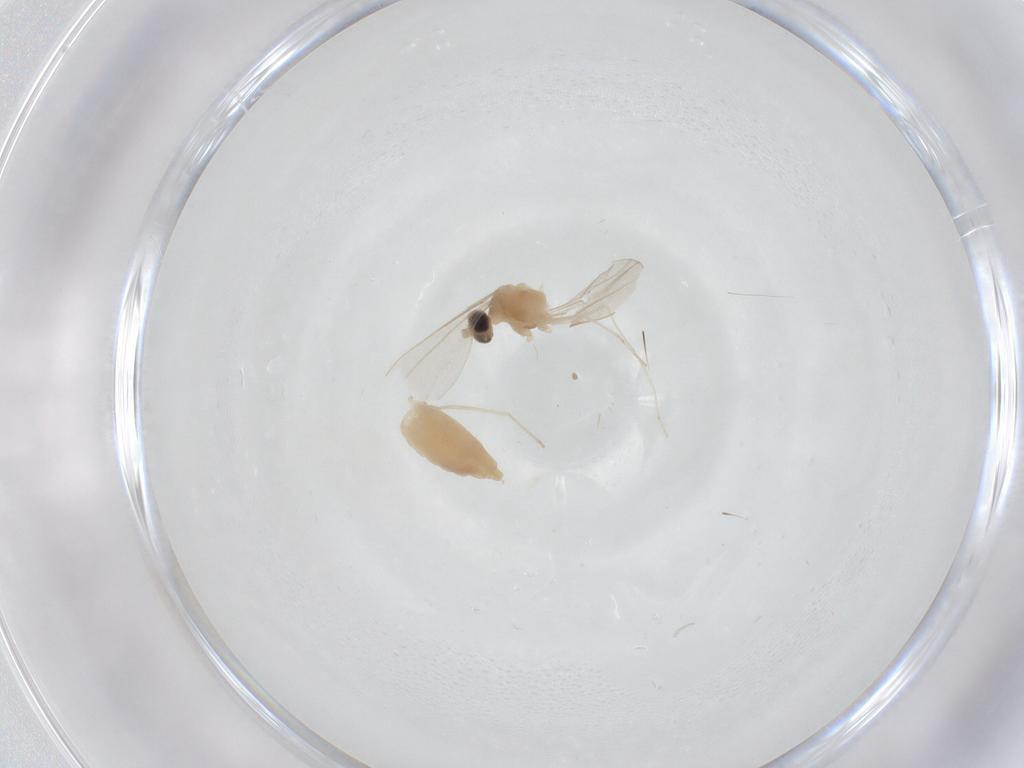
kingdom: Animalia
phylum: Arthropoda
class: Insecta
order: Diptera
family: Cecidomyiidae
